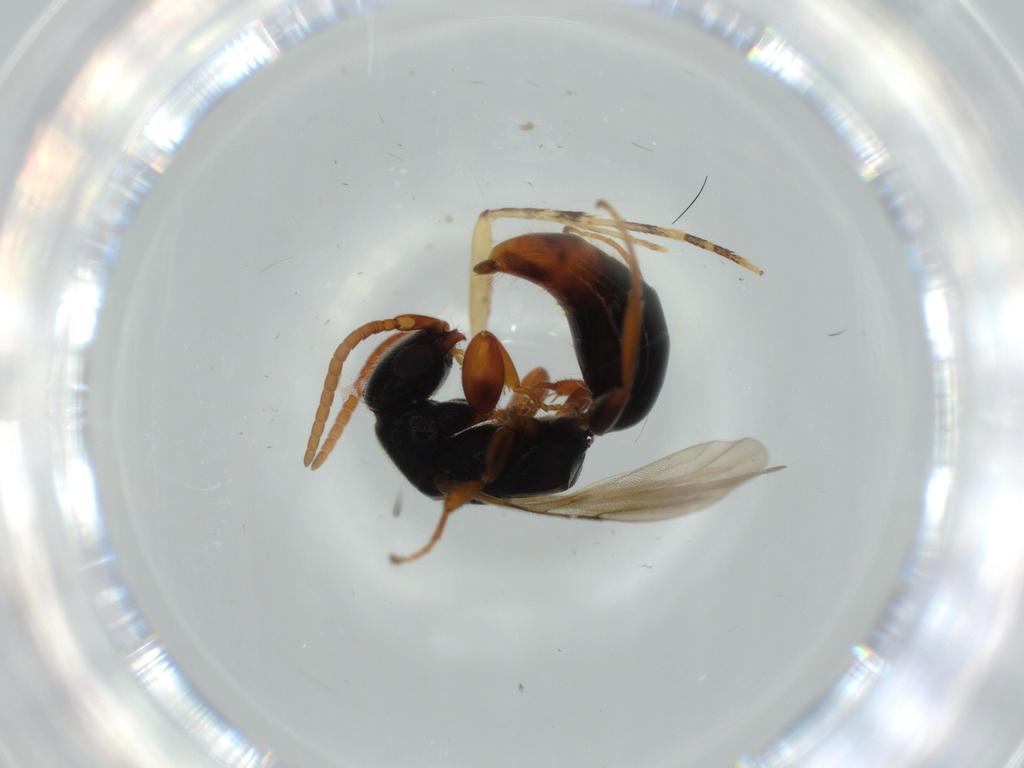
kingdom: Animalia
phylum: Arthropoda
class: Insecta
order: Hymenoptera
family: Bethylidae
